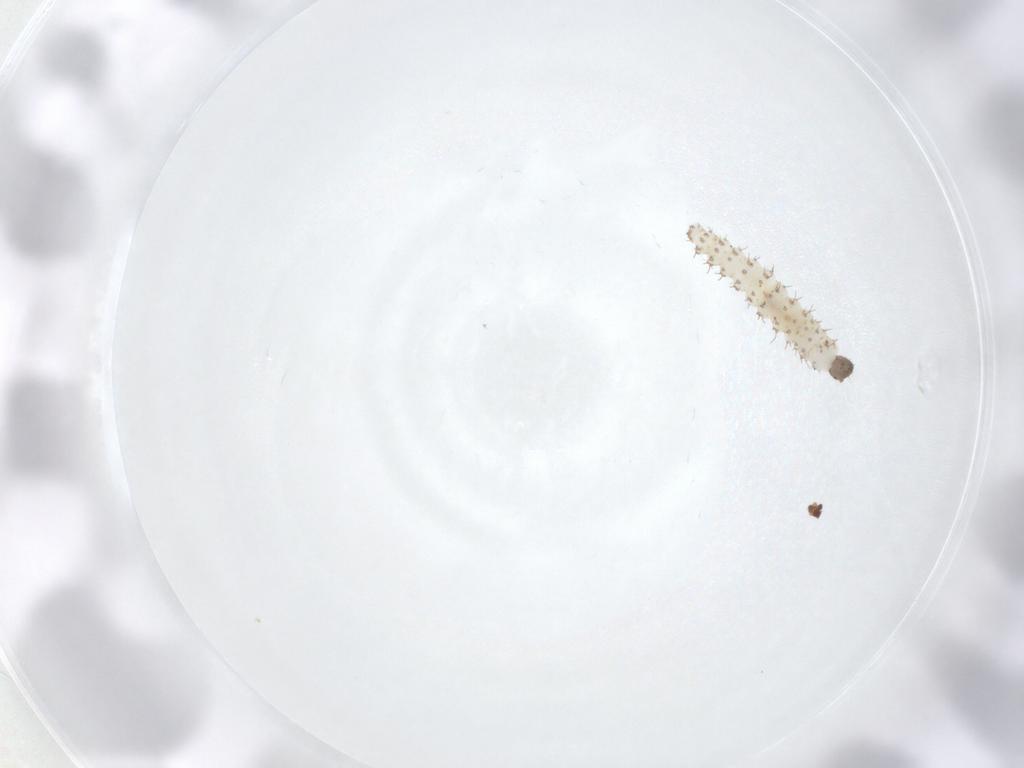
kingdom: Animalia
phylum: Arthropoda
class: Insecta
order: Diptera
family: Ceratopogonidae
